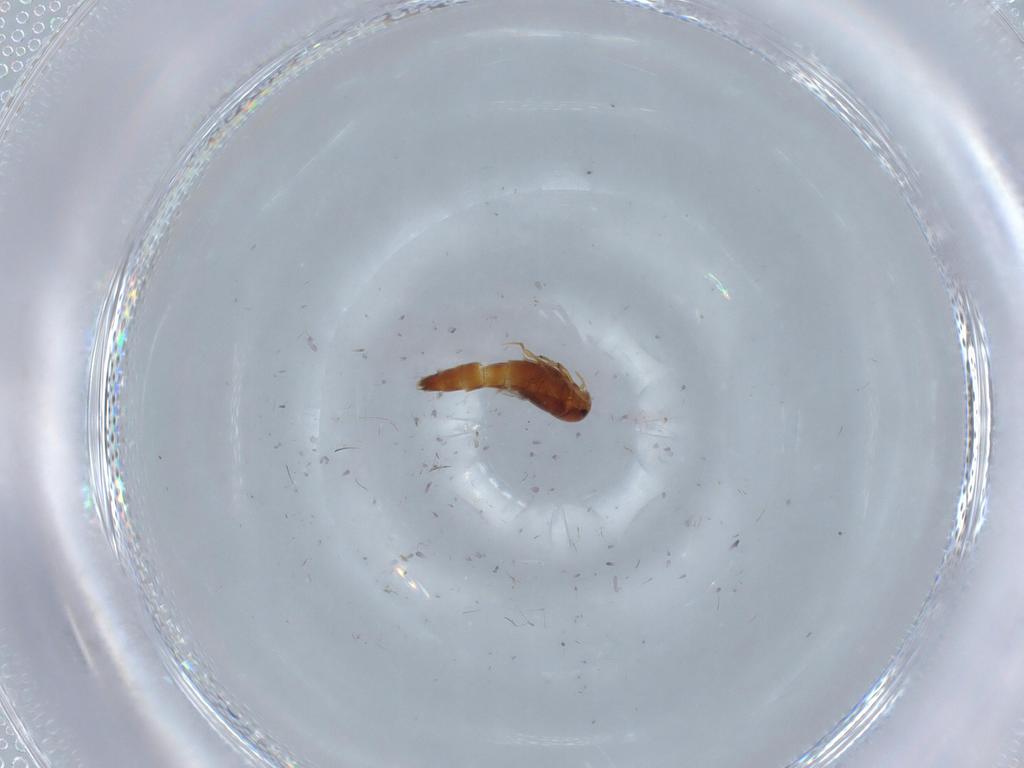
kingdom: Animalia
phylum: Arthropoda
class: Insecta
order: Coleoptera
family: Staphylinidae
